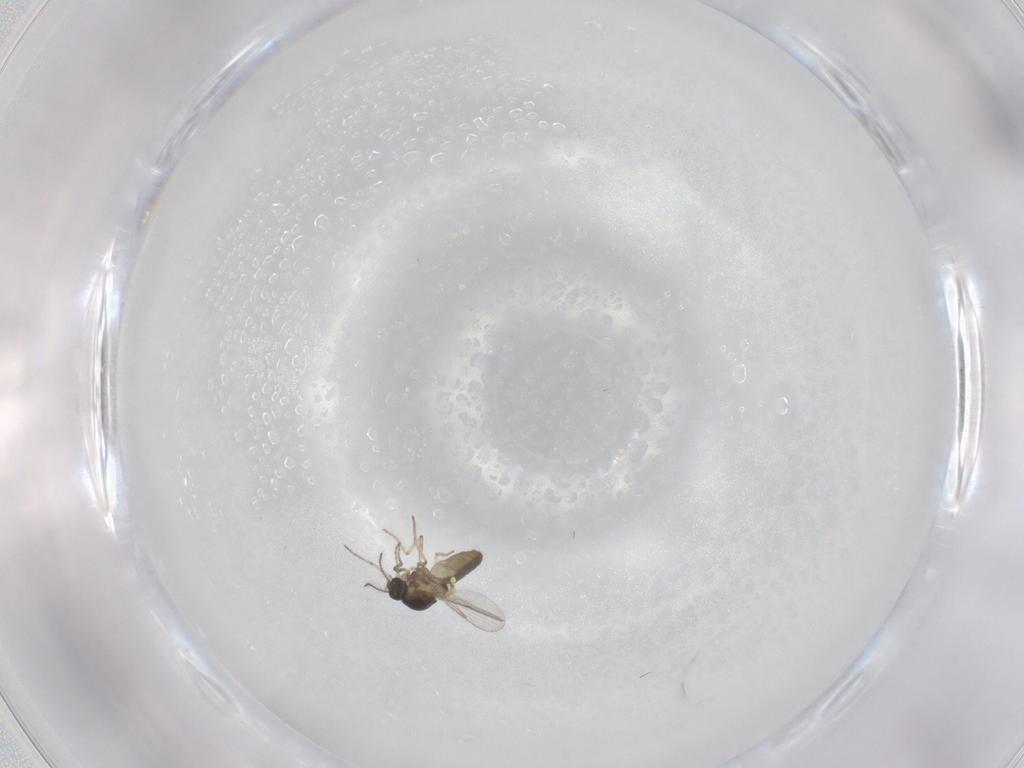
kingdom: Animalia
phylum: Arthropoda
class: Insecta
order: Diptera
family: Ceratopogonidae
